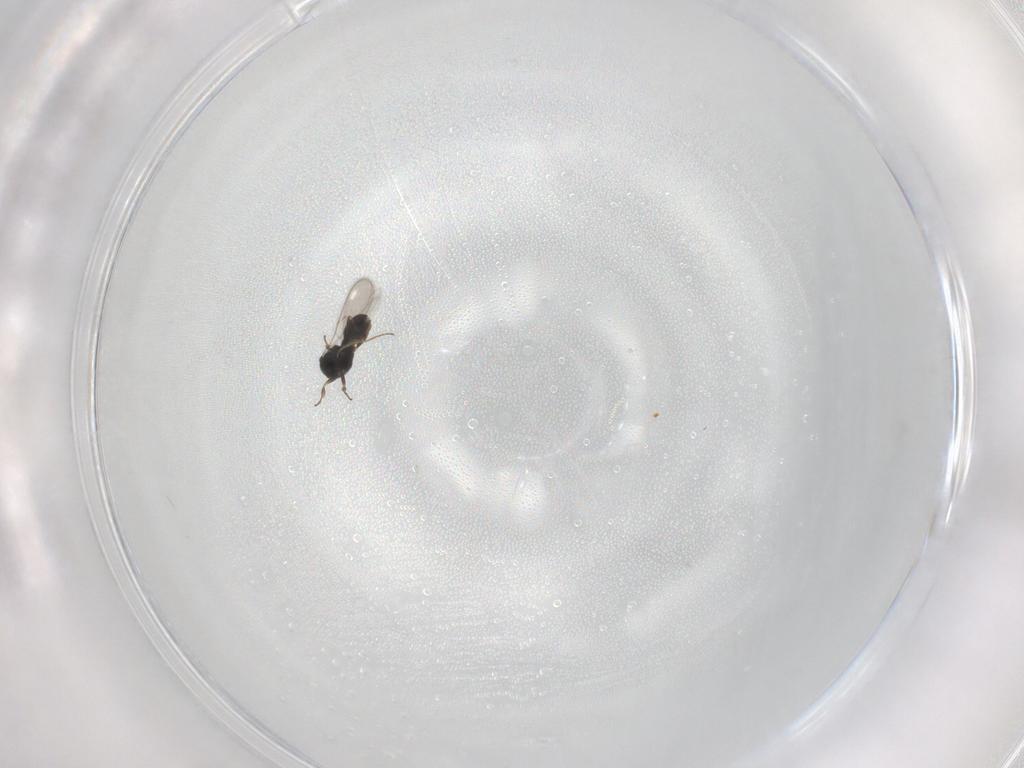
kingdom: Animalia
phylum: Arthropoda
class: Insecta
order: Hymenoptera
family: Scelionidae
